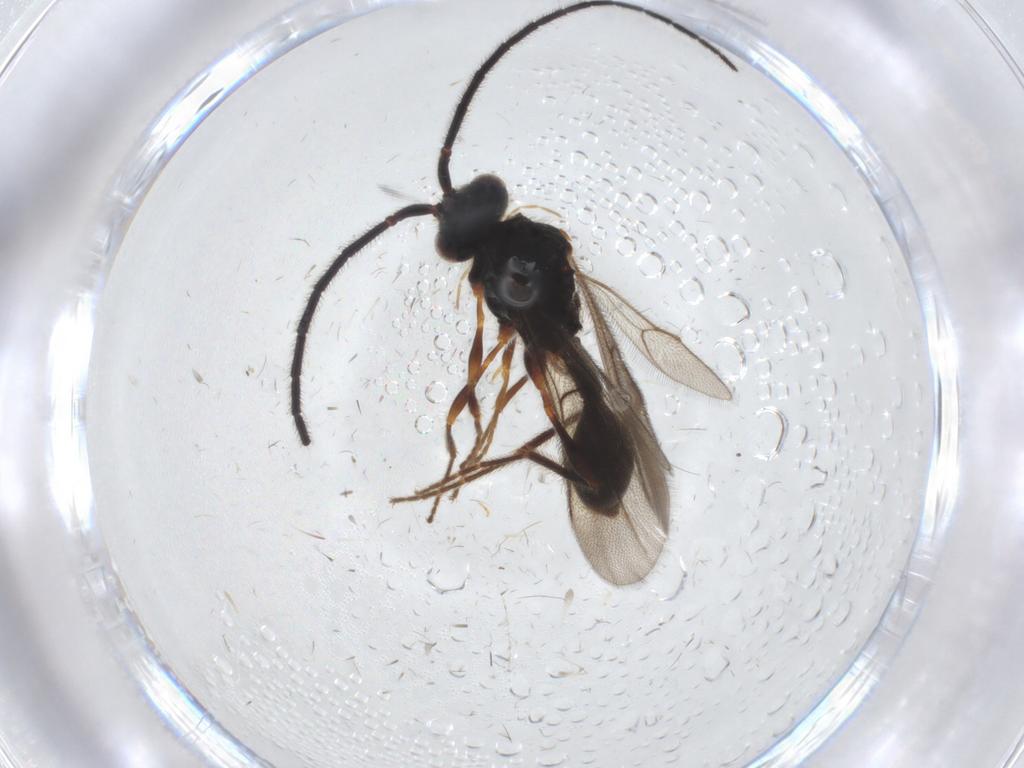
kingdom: Animalia
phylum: Arthropoda
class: Insecta
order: Hymenoptera
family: Diapriidae
